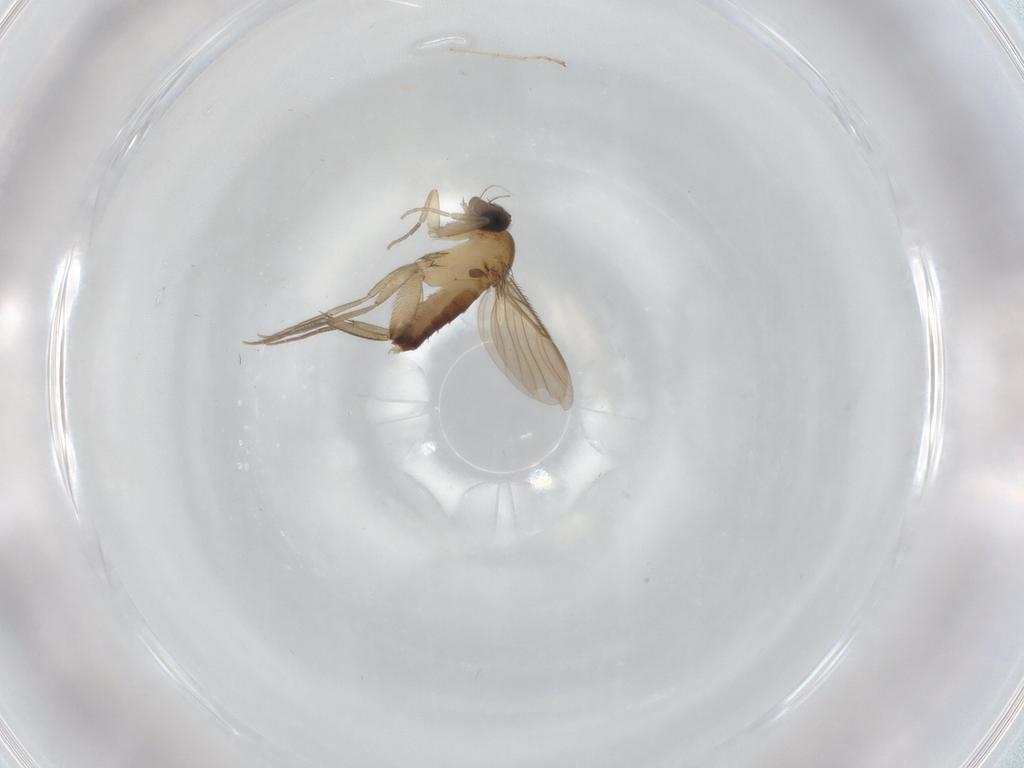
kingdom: Animalia
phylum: Arthropoda
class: Insecta
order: Diptera
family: Phoridae
